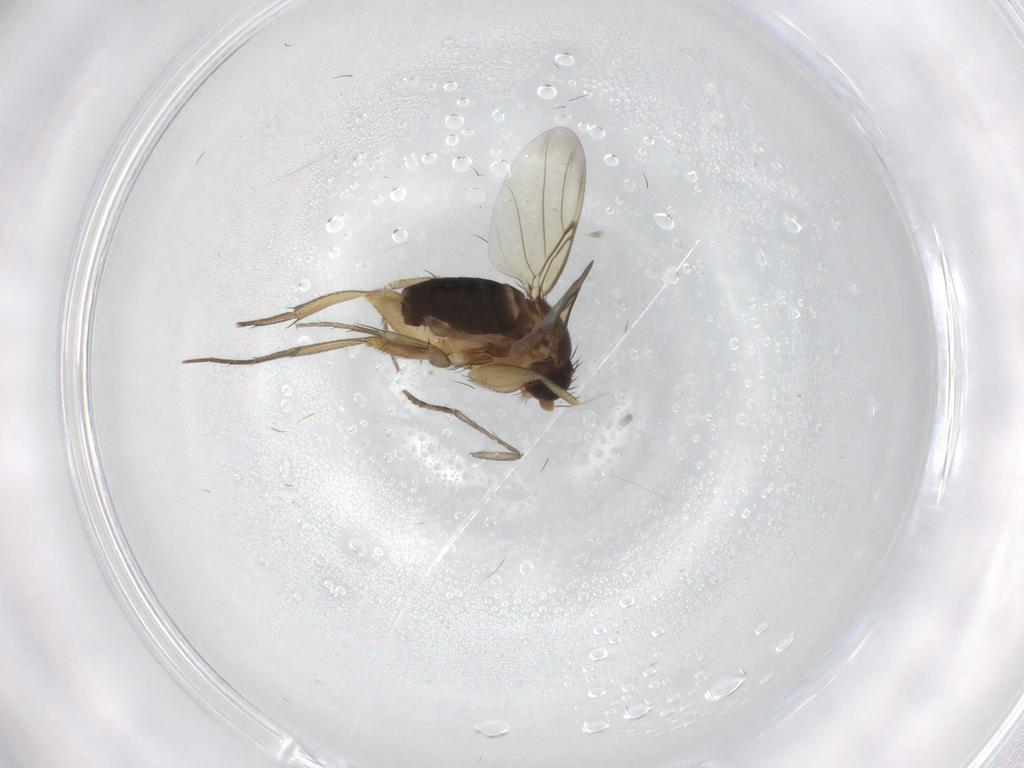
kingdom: Animalia
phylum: Arthropoda
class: Insecta
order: Diptera
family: Phoridae
